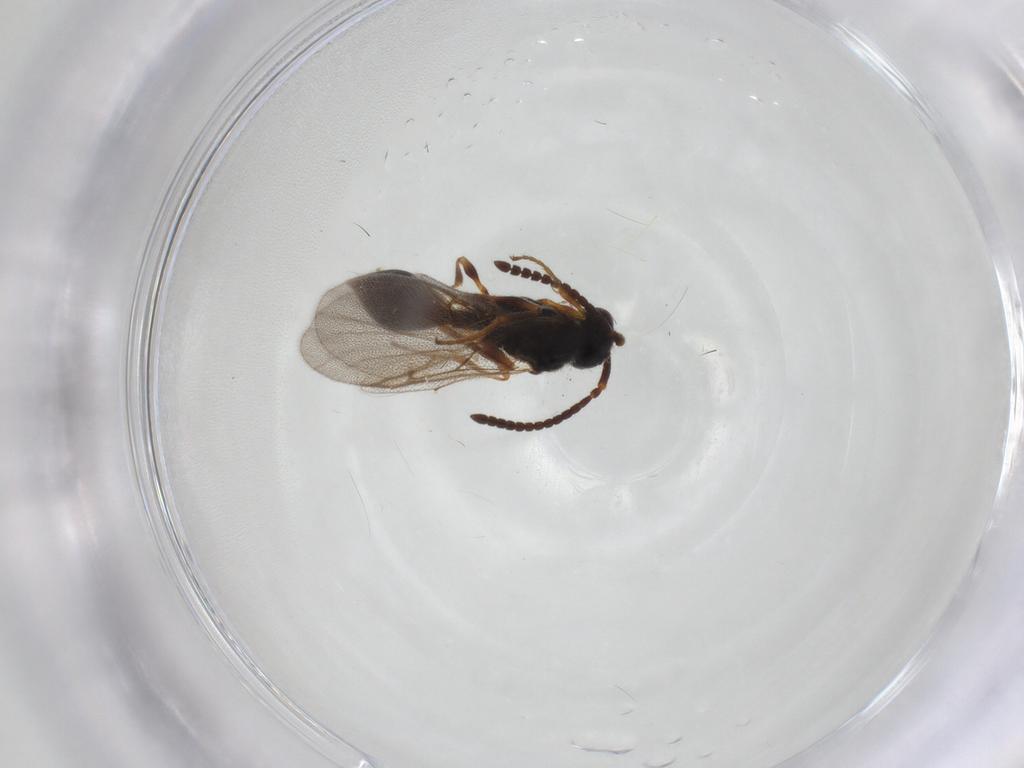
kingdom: Animalia
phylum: Arthropoda
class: Insecta
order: Hymenoptera
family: Diapriidae
